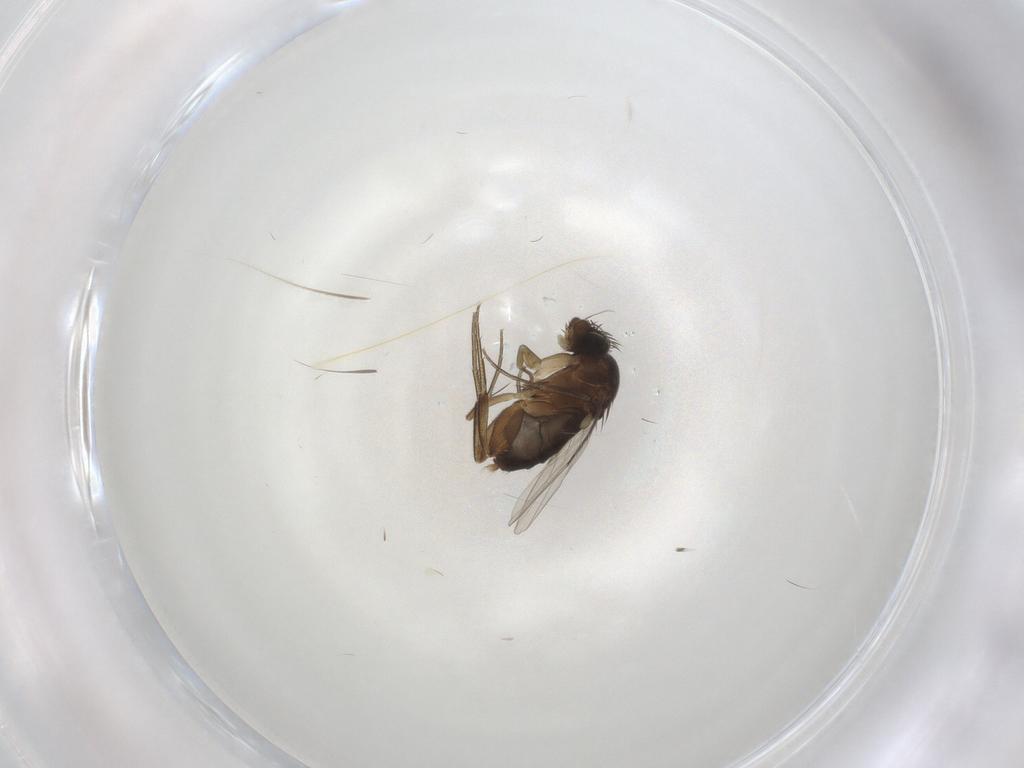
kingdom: Animalia
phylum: Arthropoda
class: Insecta
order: Diptera
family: Phoridae
